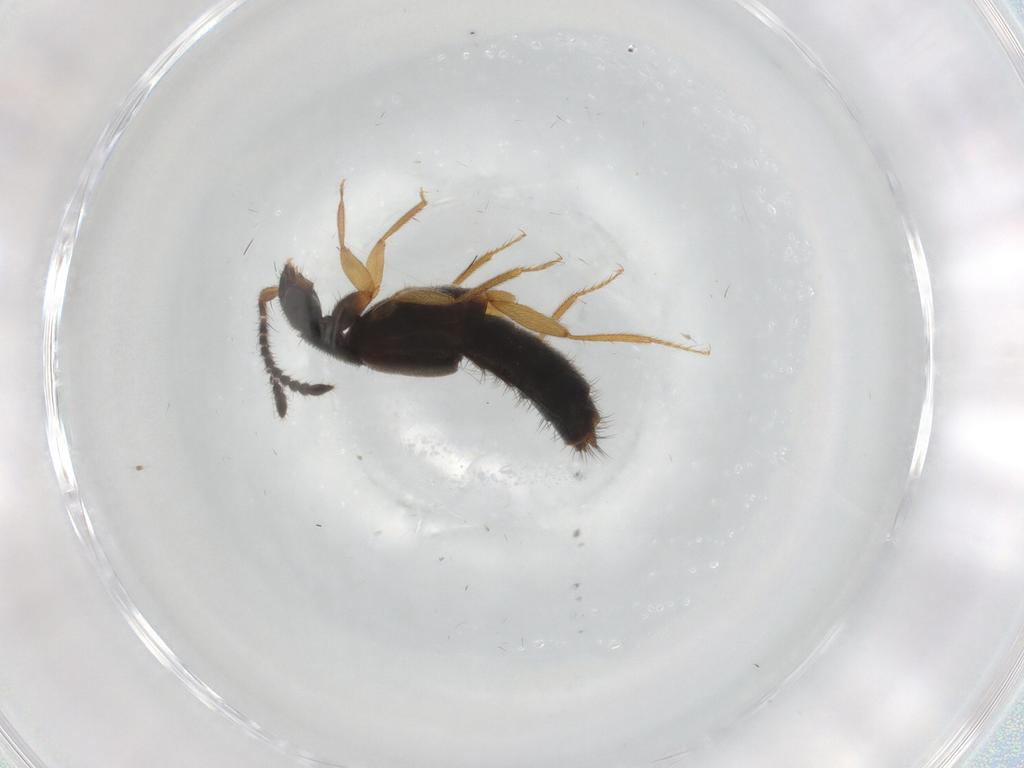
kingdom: Animalia
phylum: Arthropoda
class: Insecta
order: Coleoptera
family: Staphylinidae
